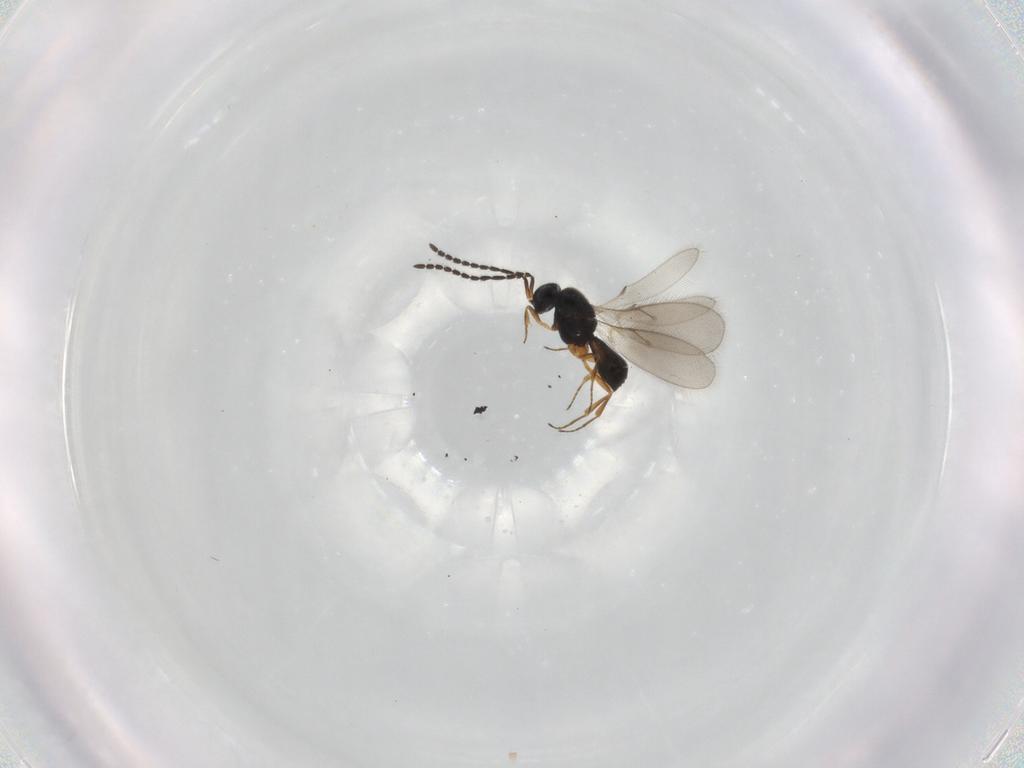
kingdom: Animalia
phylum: Arthropoda
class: Insecta
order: Hymenoptera
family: Scelionidae
